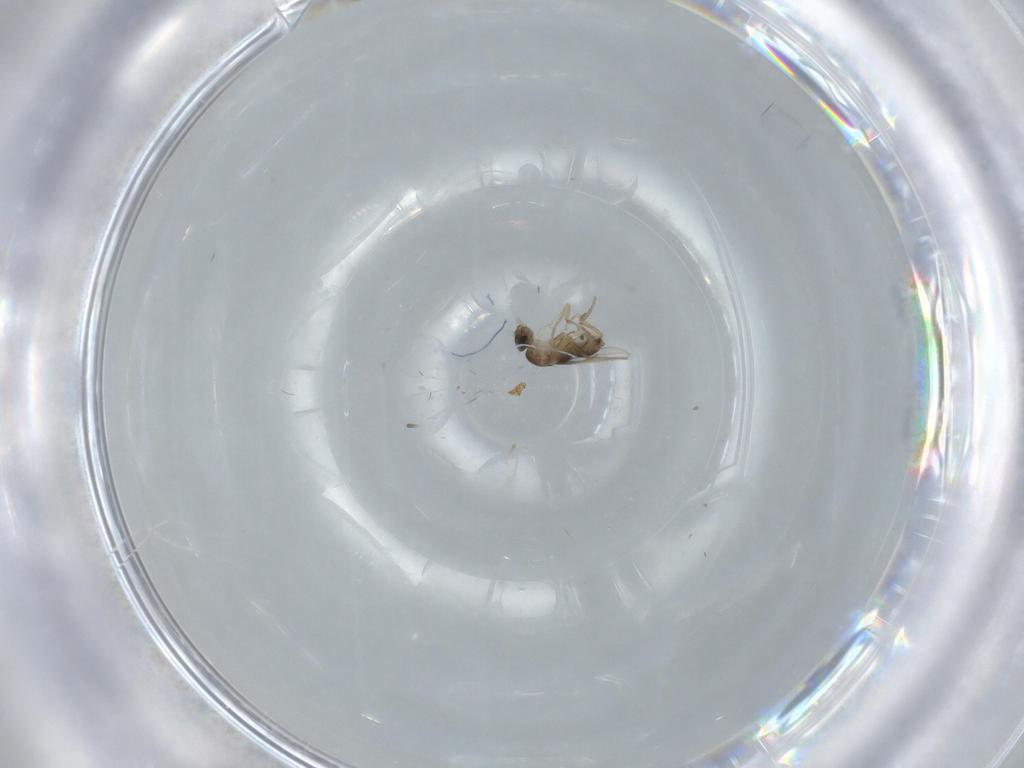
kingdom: Animalia
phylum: Arthropoda
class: Insecta
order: Diptera
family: Phoridae
